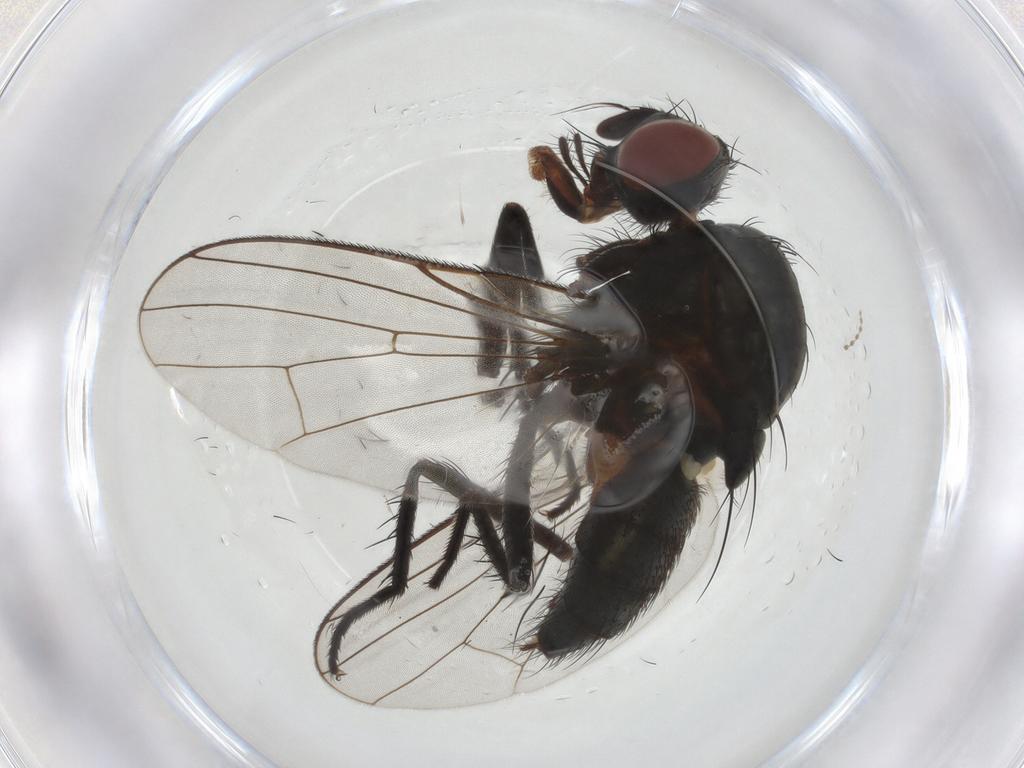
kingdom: Animalia
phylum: Arthropoda
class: Insecta
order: Diptera
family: Anthomyiidae
